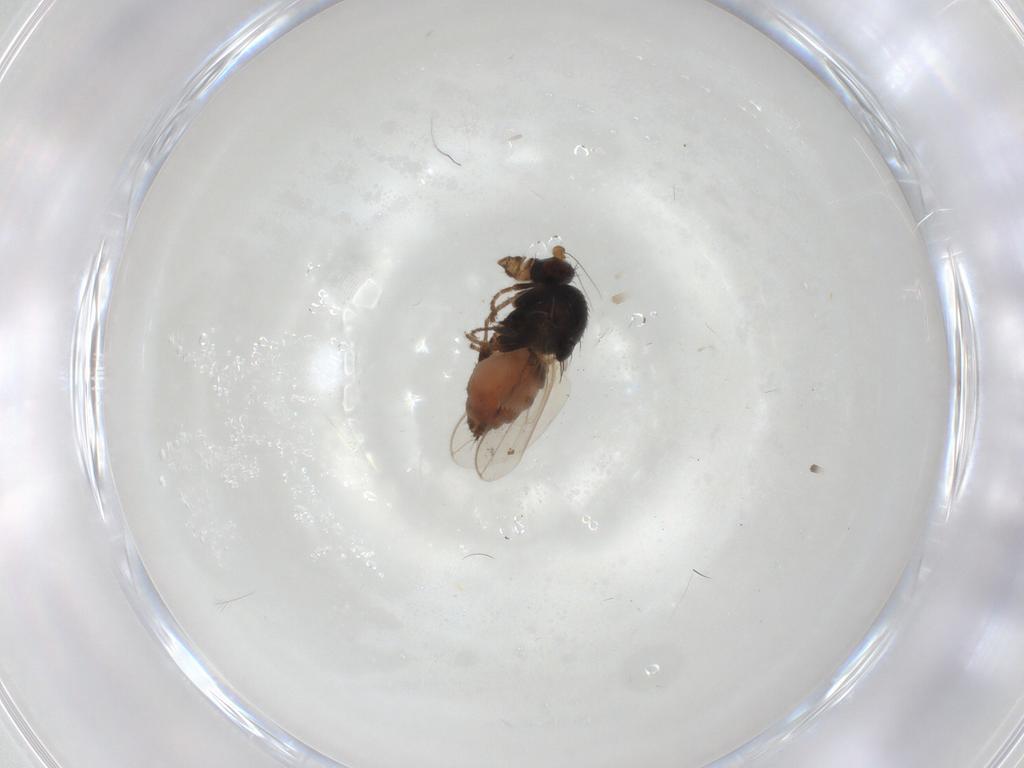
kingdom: Animalia
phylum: Arthropoda
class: Insecta
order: Diptera
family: Sphaeroceridae
